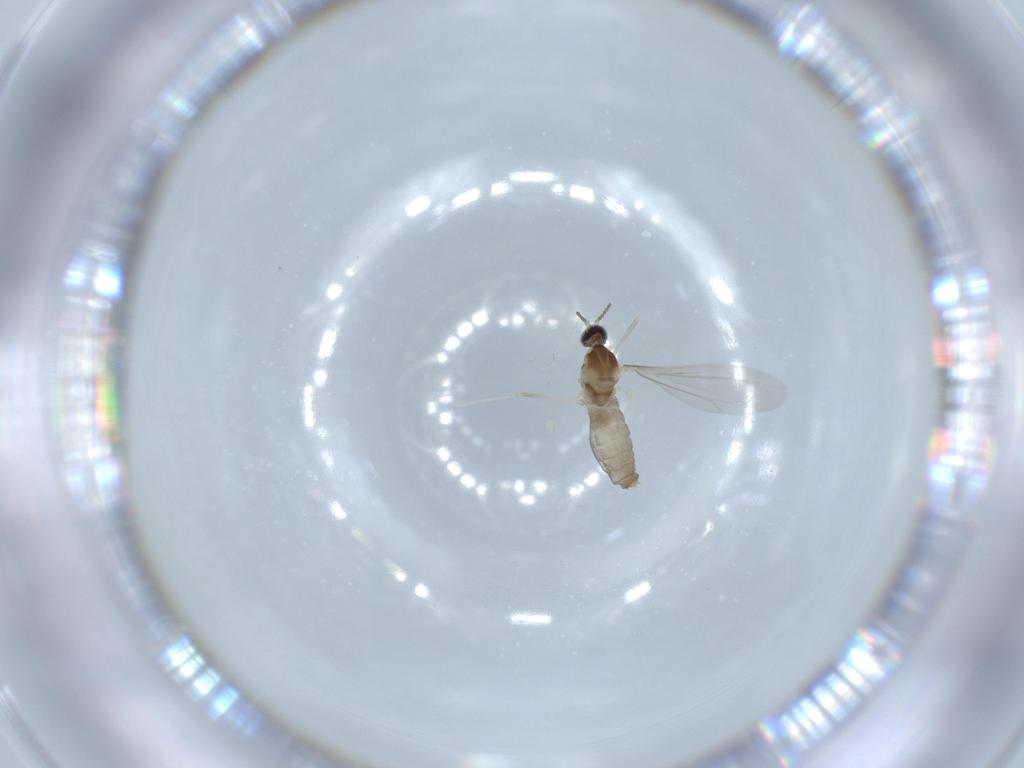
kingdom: Animalia
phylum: Arthropoda
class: Insecta
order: Diptera
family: Cecidomyiidae
